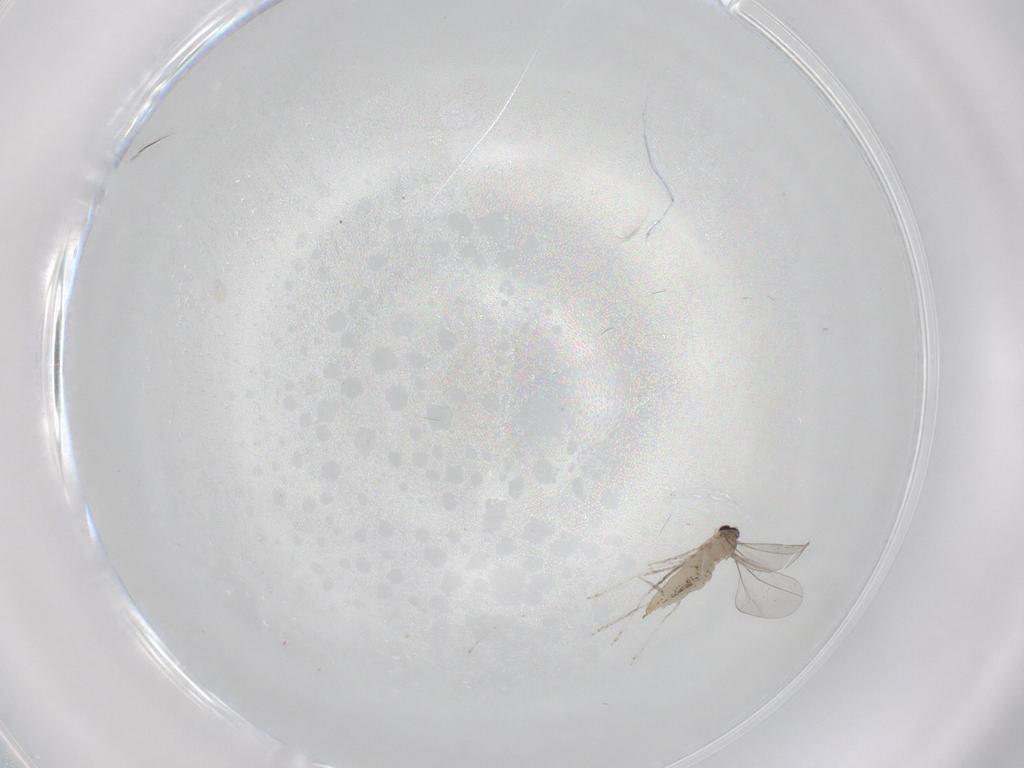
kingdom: Animalia
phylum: Arthropoda
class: Insecta
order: Diptera
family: Cecidomyiidae
